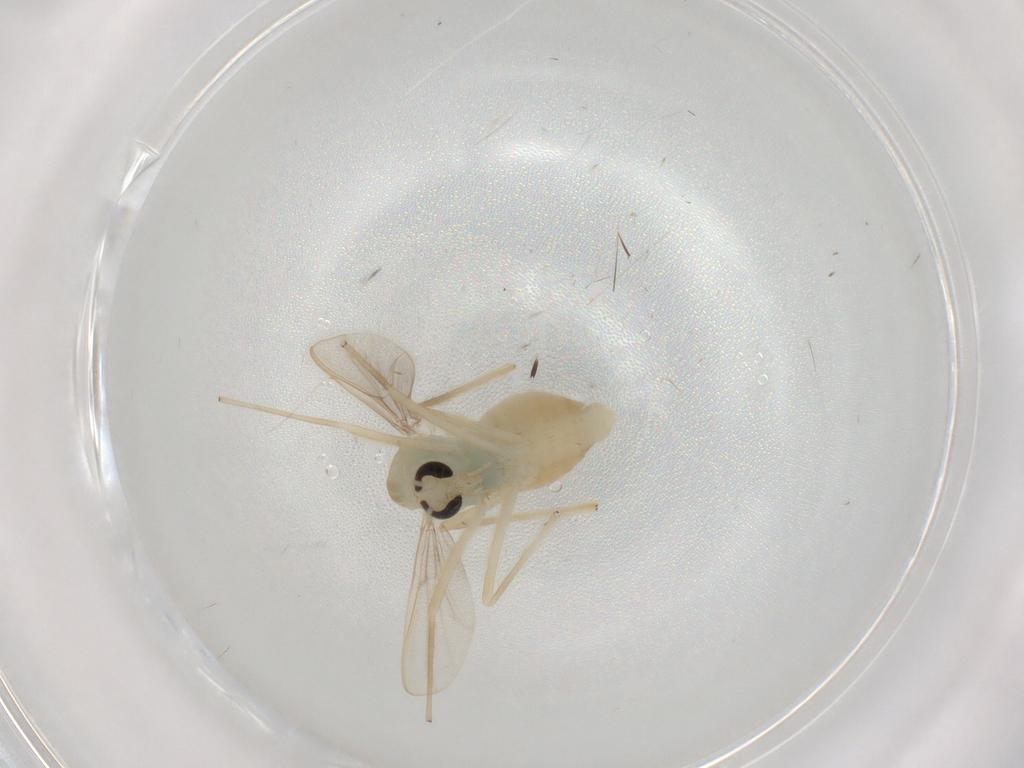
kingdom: Animalia
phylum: Arthropoda
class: Insecta
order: Diptera
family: Chironomidae
